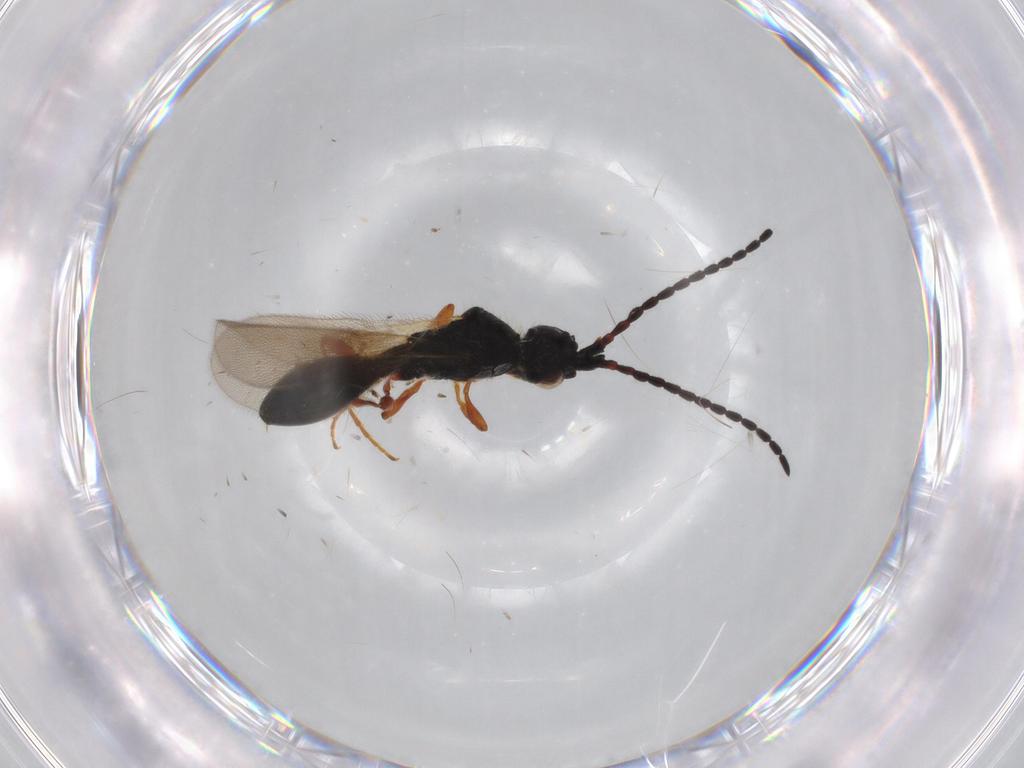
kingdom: Animalia
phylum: Arthropoda
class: Insecta
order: Hymenoptera
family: Diapriidae
